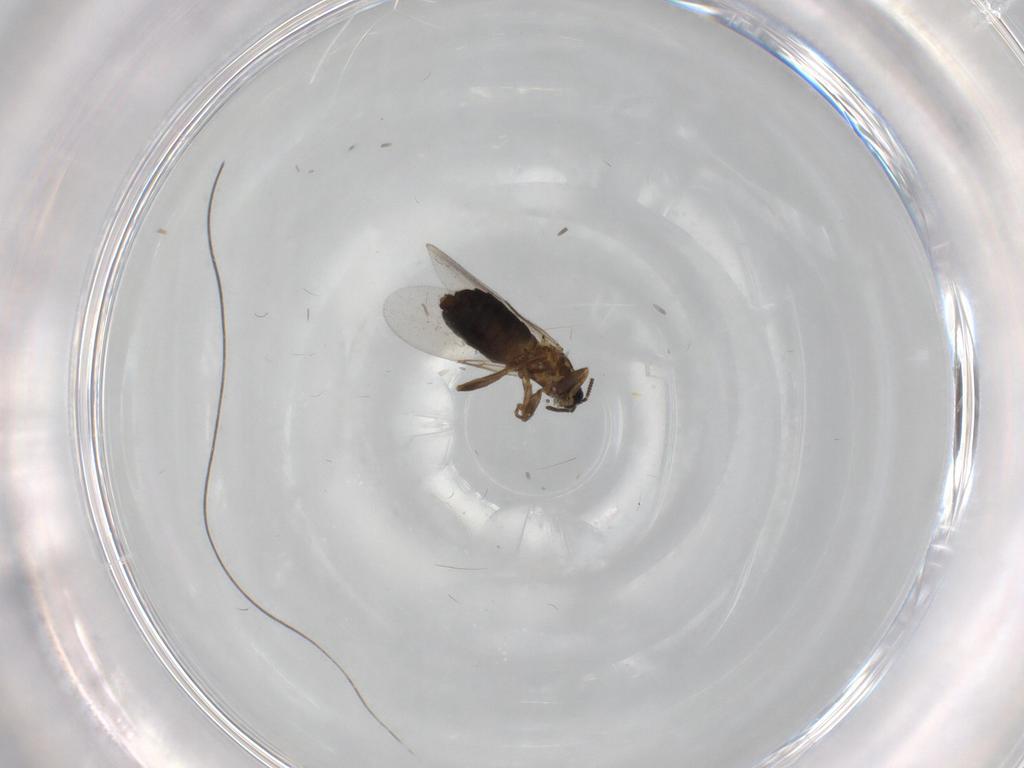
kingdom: Animalia
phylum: Arthropoda
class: Insecta
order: Diptera
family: Scatopsidae
